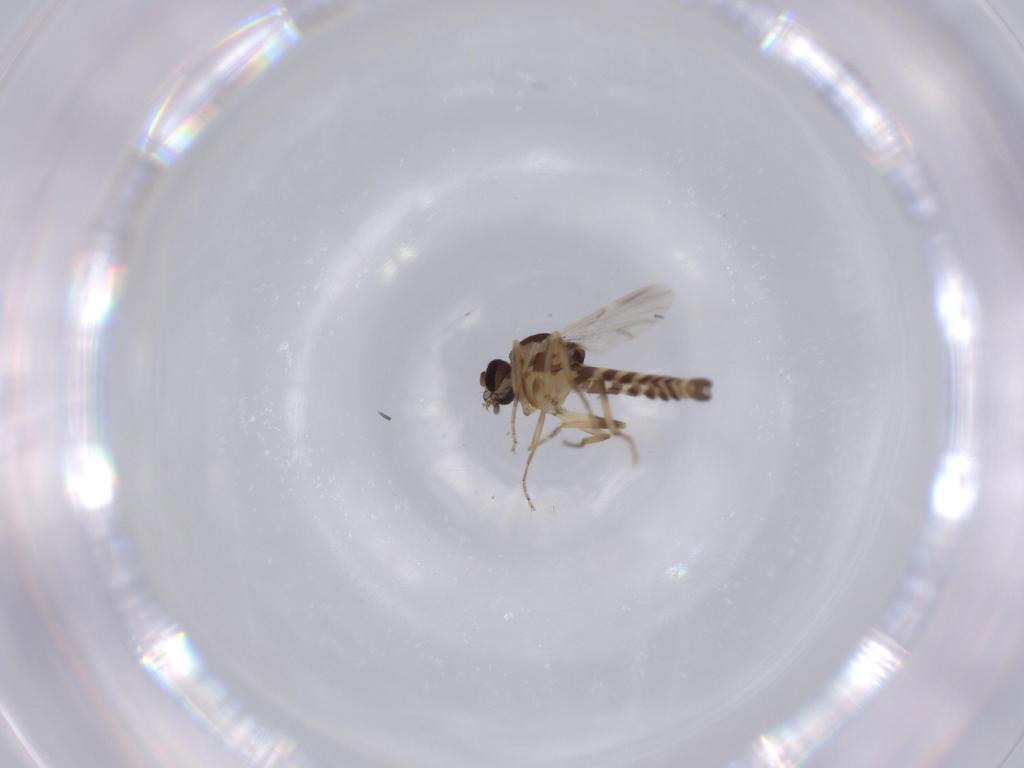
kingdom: Animalia
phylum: Arthropoda
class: Insecta
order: Diptera
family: Ceratopogonidae
